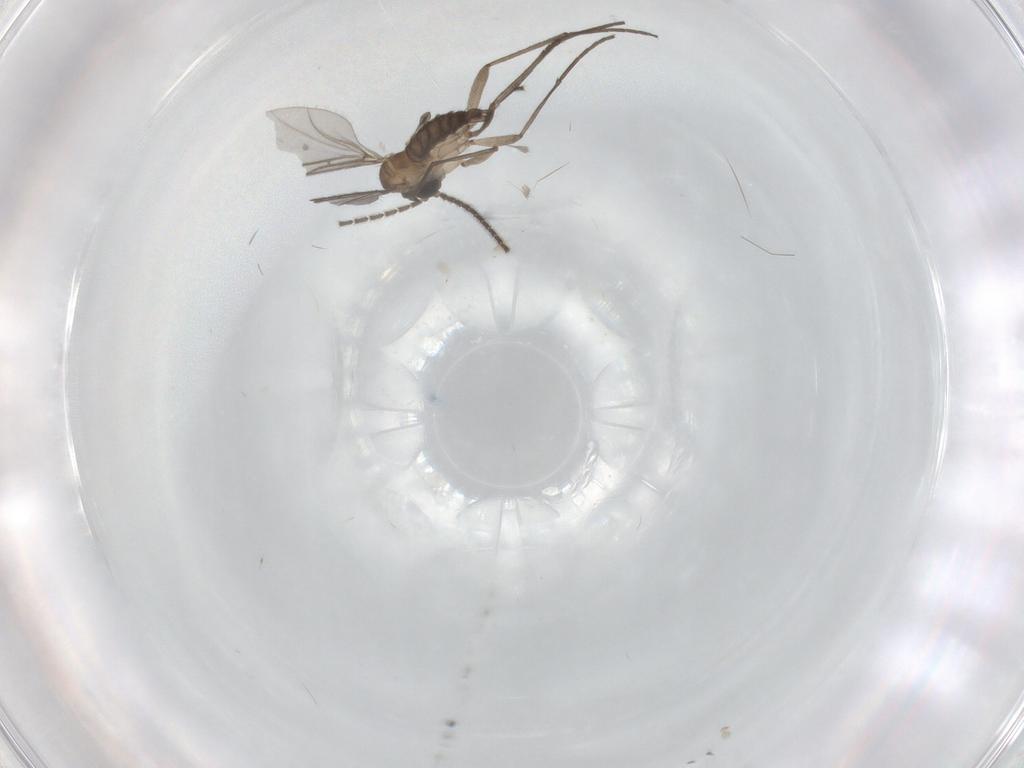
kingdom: Animalia
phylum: Arthropoda
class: Insecta
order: Diptera
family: Sciaridae
